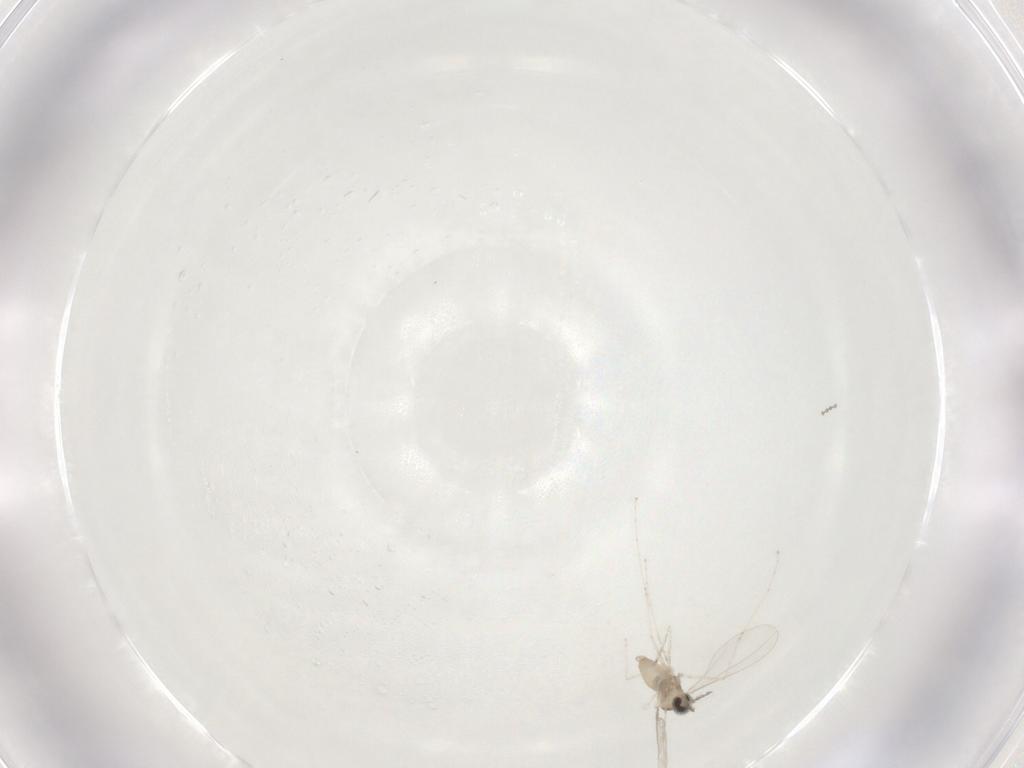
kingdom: Animalia
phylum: Arthropoda
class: Insecta
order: Diptera
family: Cecidomyiidae
